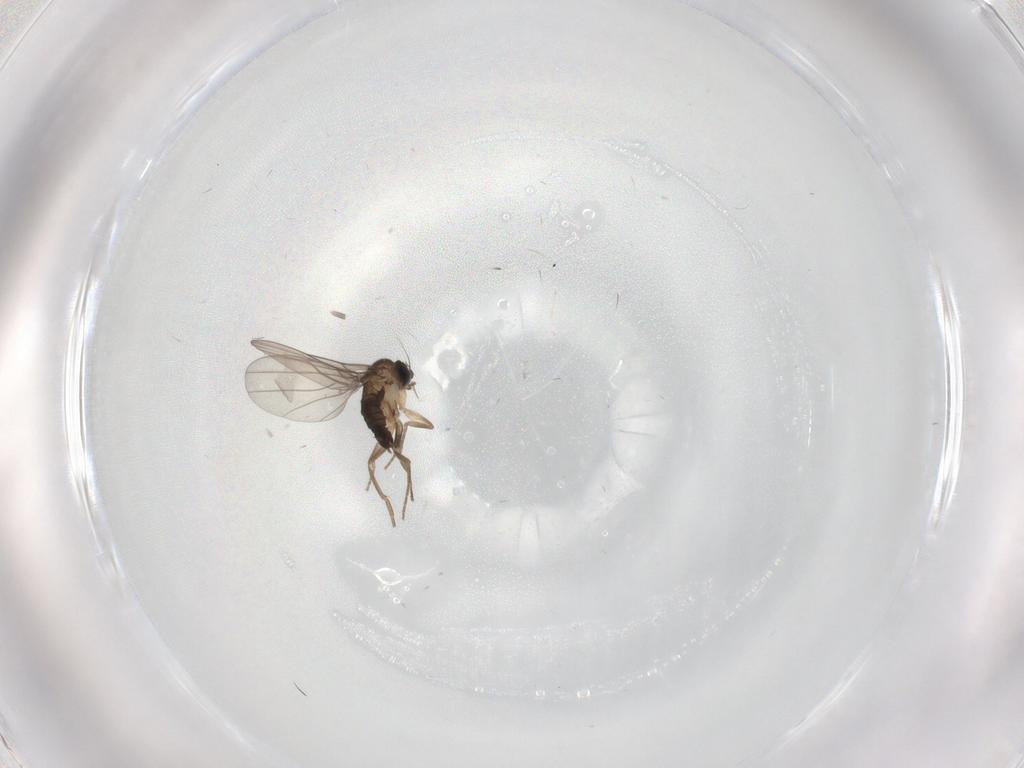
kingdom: Animalia
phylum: Arthropoda
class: Insecta
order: Diptera
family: Phoridae
